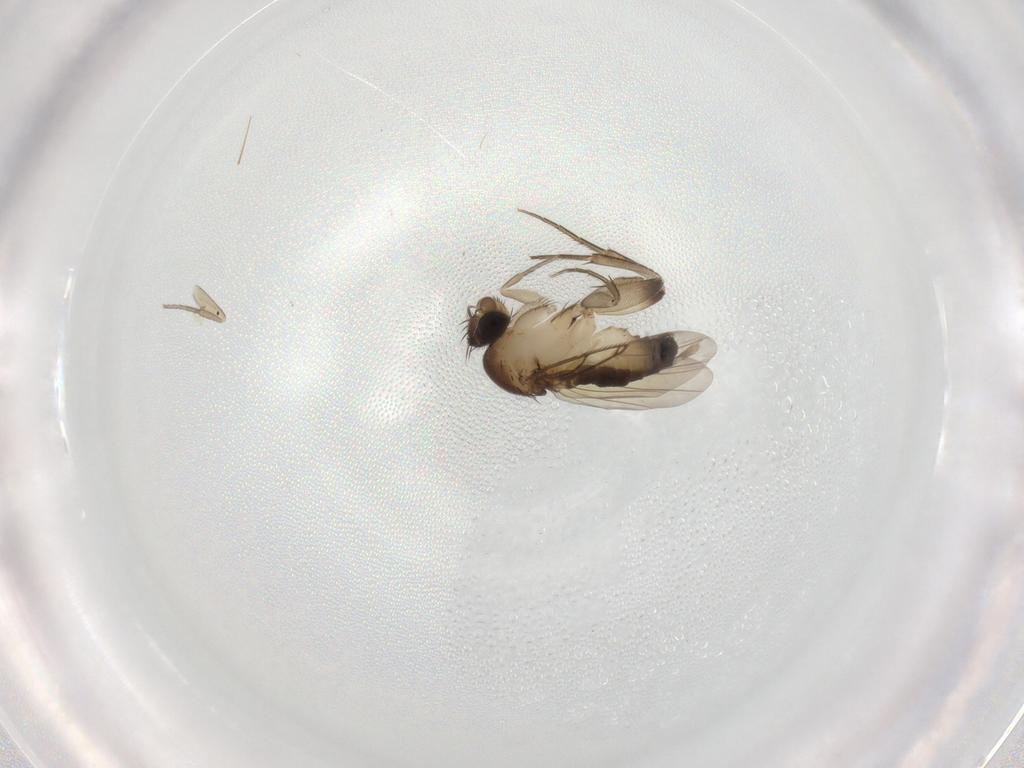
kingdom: Animalia
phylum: Arthropoda
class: Insecta
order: Diptera
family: Phoridae
